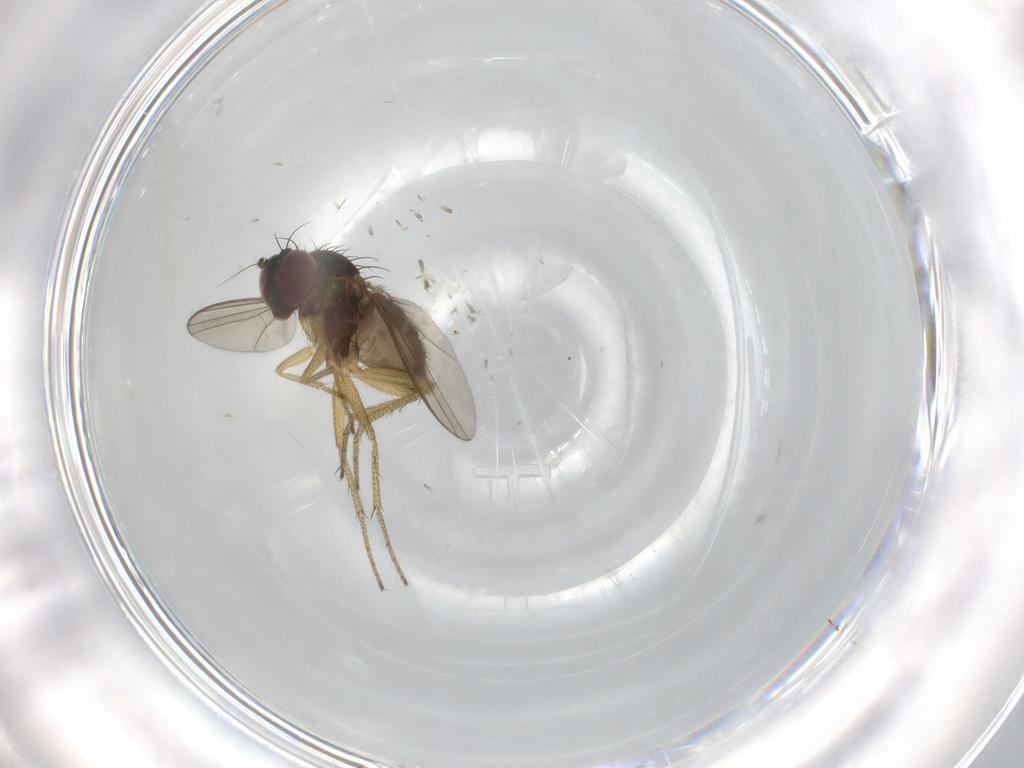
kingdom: Animalia
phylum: Arthropoda
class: Insecta
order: Diptera
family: Dolichopodidae
